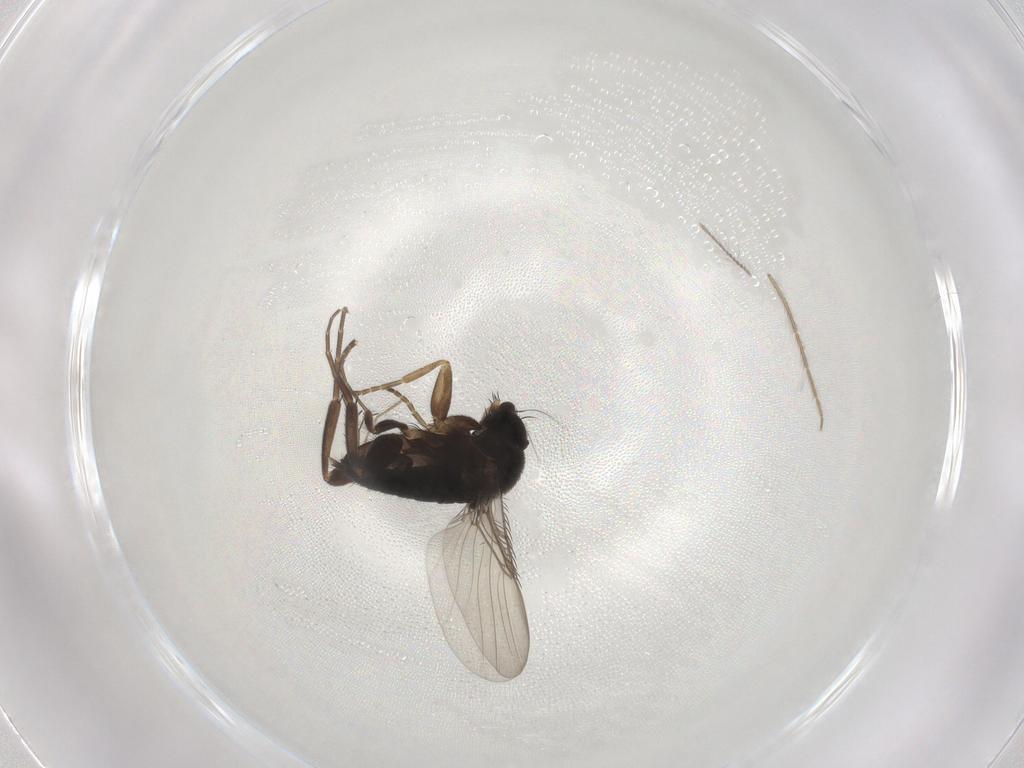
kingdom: Animalia
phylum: Arthropoda
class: Insecta
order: Diptera
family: Phoridae
